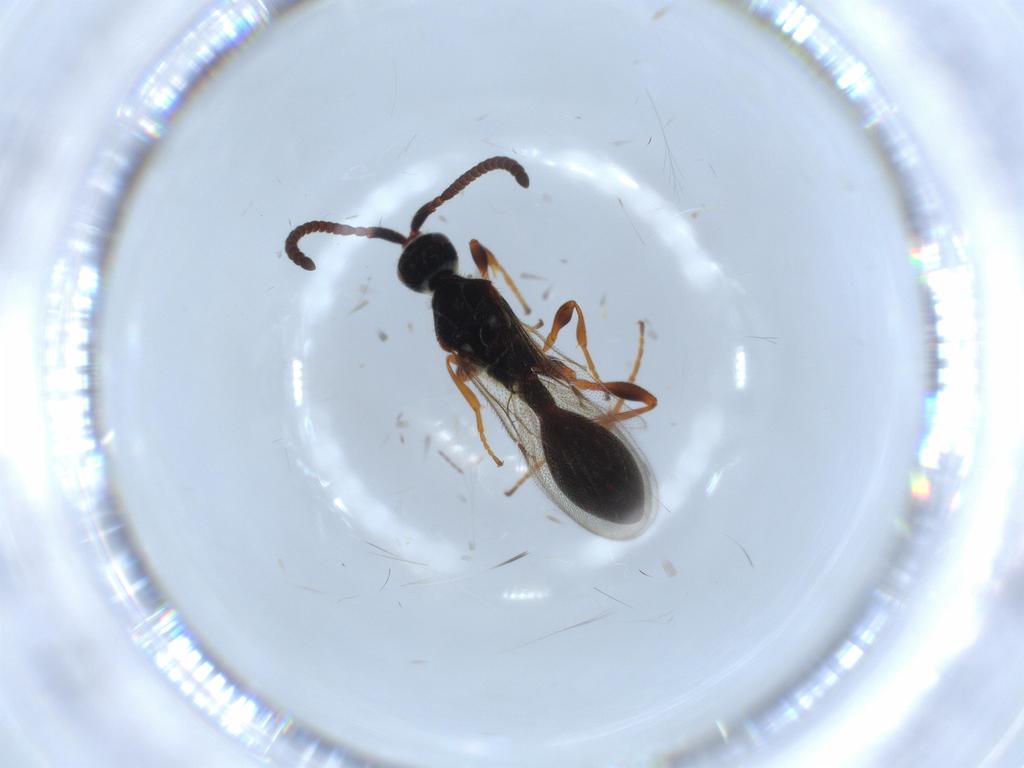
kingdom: Animalia
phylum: Arthropoda
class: Insecta
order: Hymenoptera
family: Diapriidae
